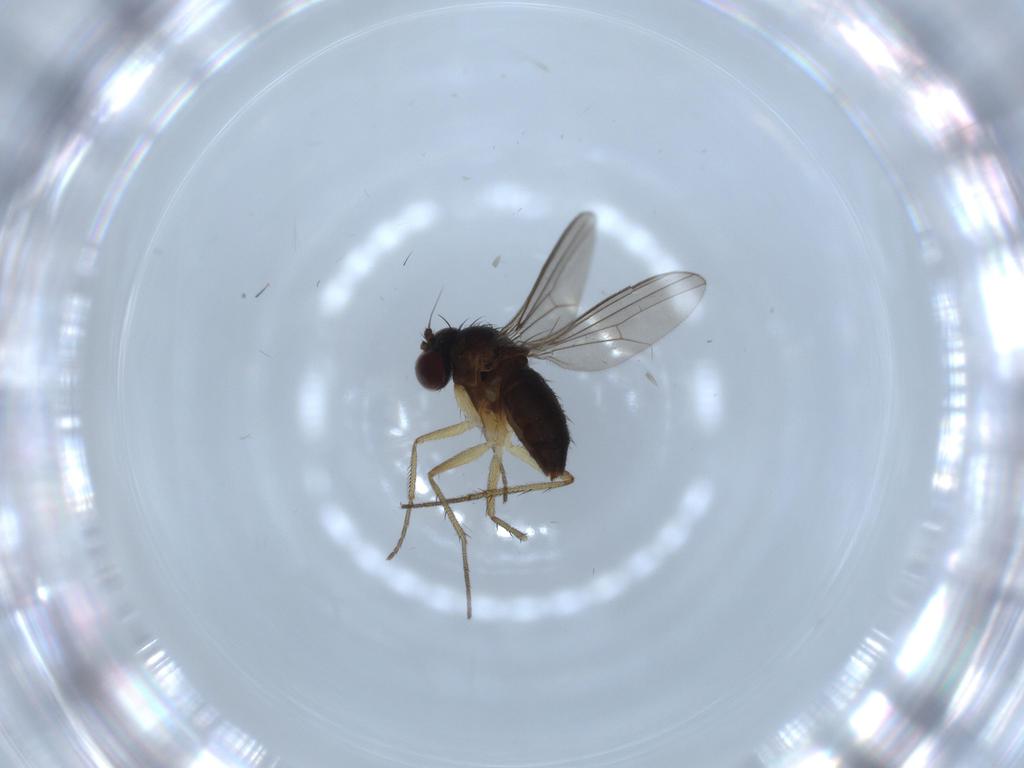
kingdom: Animalia
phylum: Arthropoda
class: Insecta
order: Diptera
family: Dolichopodidae
